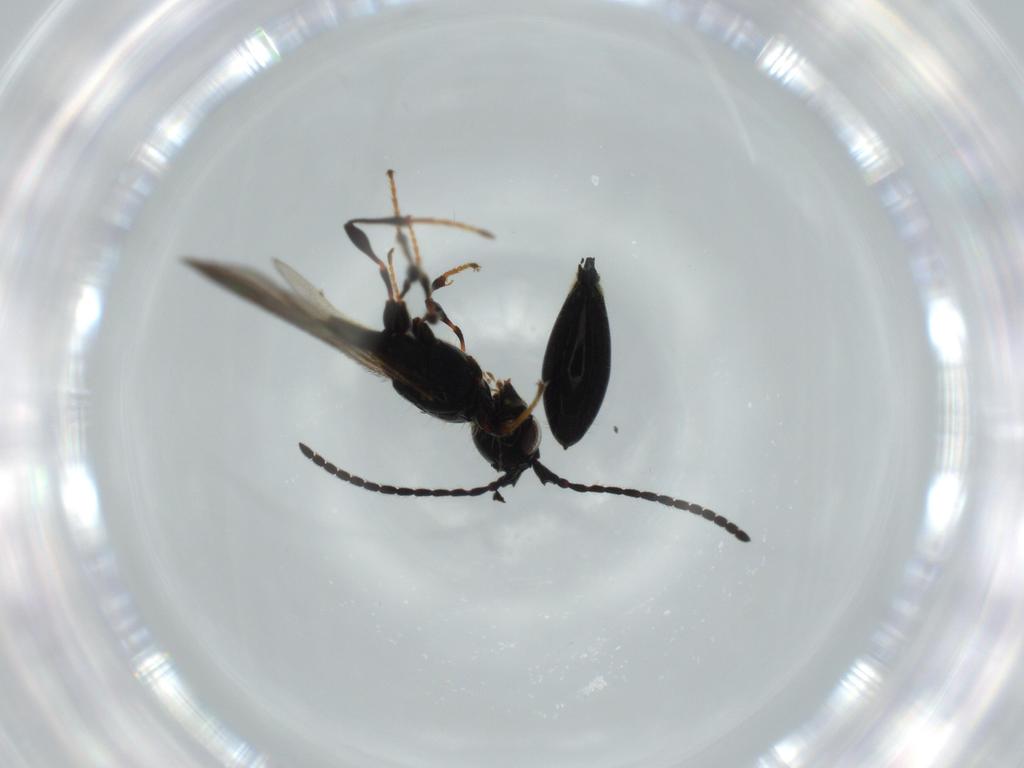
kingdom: Animalia
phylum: Arthropoda
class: Insecta
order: Hymenoptera
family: Diapriidae
